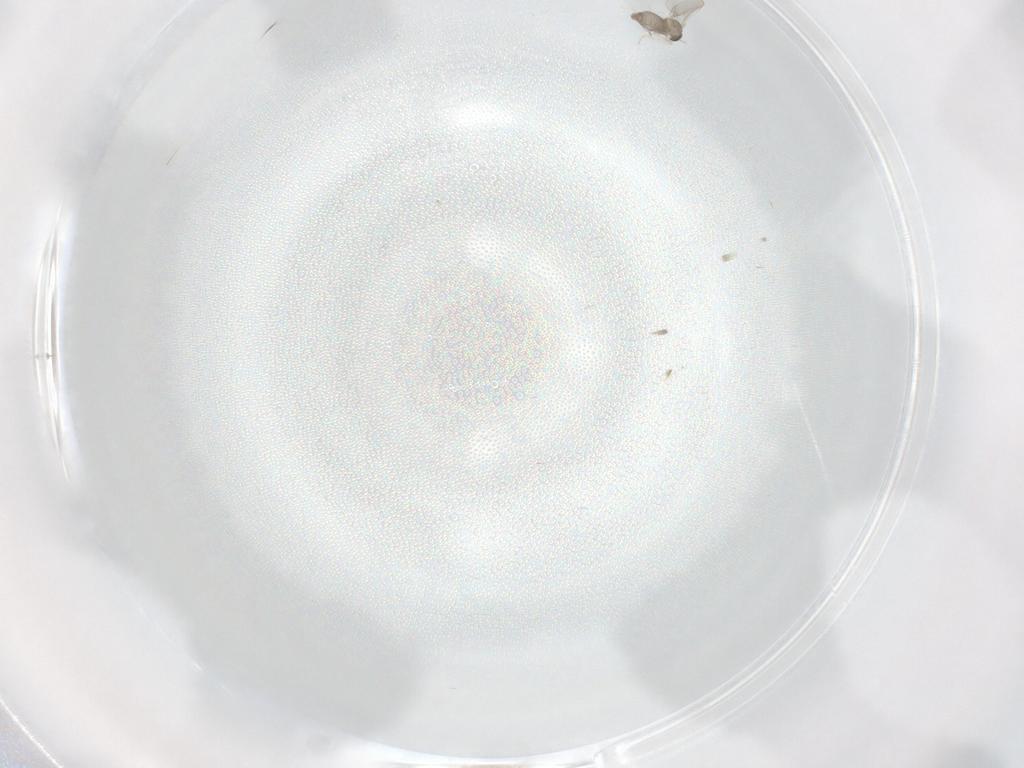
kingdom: Animalia
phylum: Arthropoda
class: Insecta
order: Diptera
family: Cecidomyiidae
